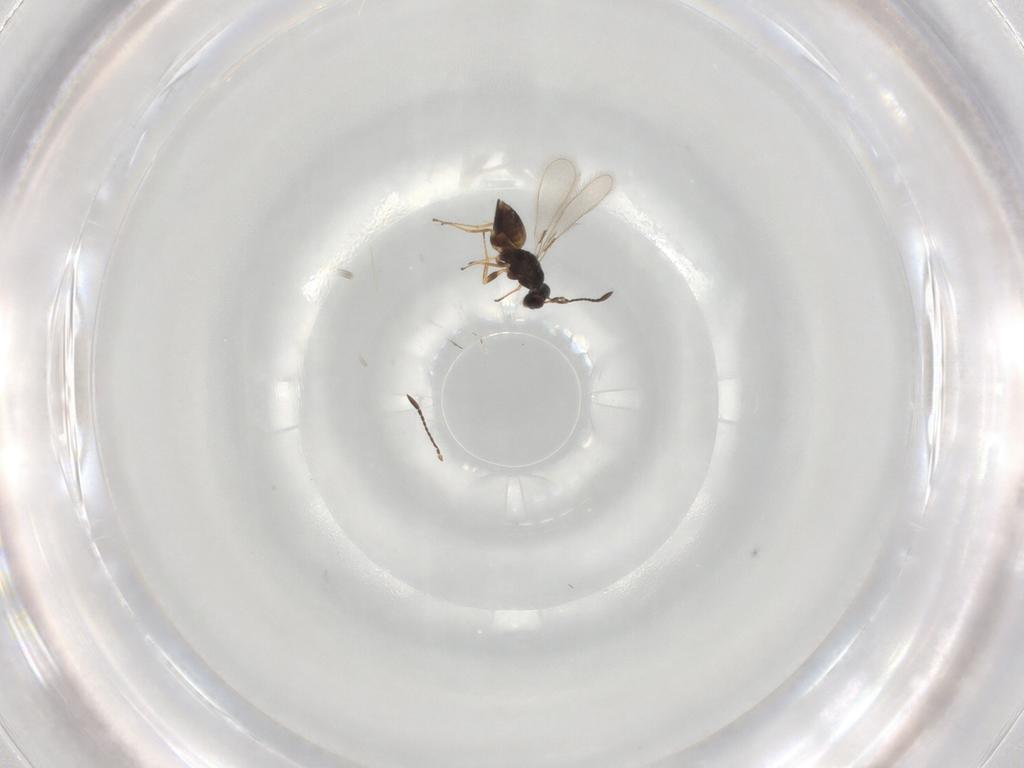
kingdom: Animalia
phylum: Arthropoda
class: Insecta
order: Hymenoptera
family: Mymaridae
